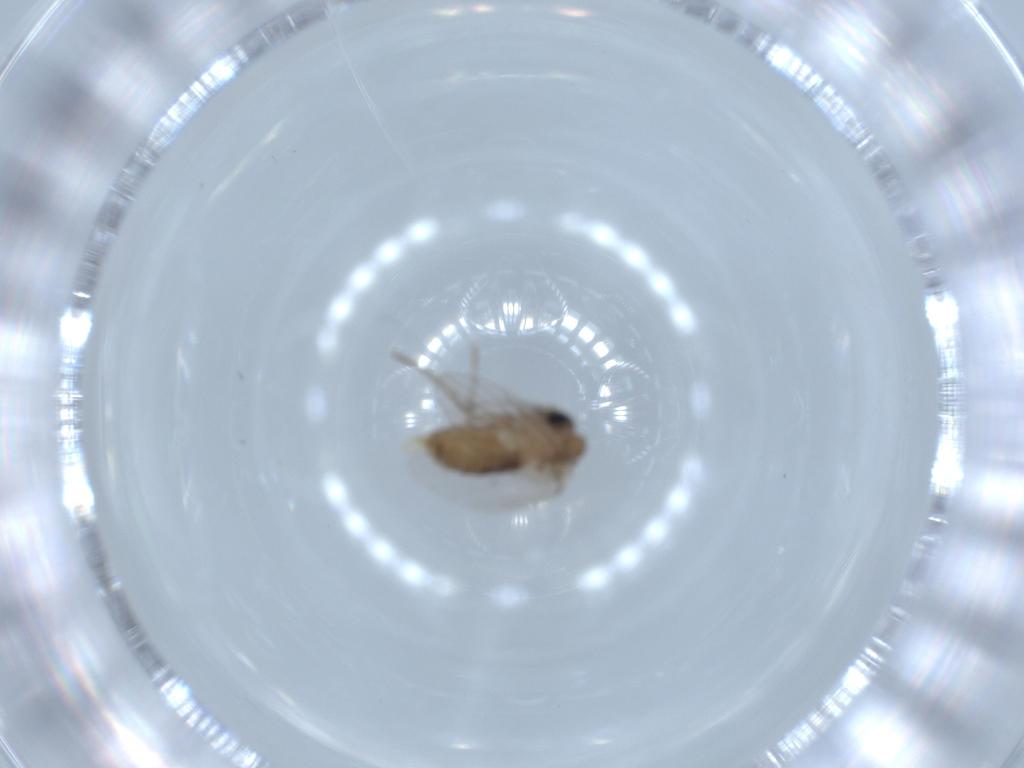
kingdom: Animalia
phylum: Arthropoda
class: Insecta
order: Diptera
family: Psychodidae
